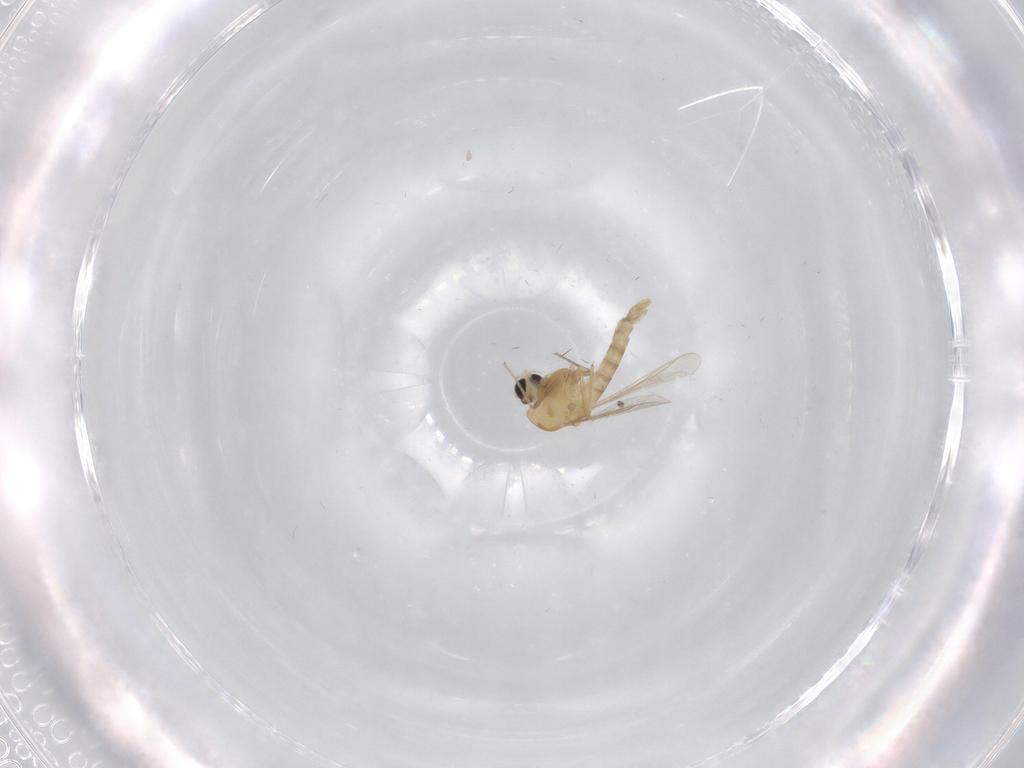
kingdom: Animalia
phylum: Arthropoda
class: Insecta
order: Diptera
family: Chironomidae
